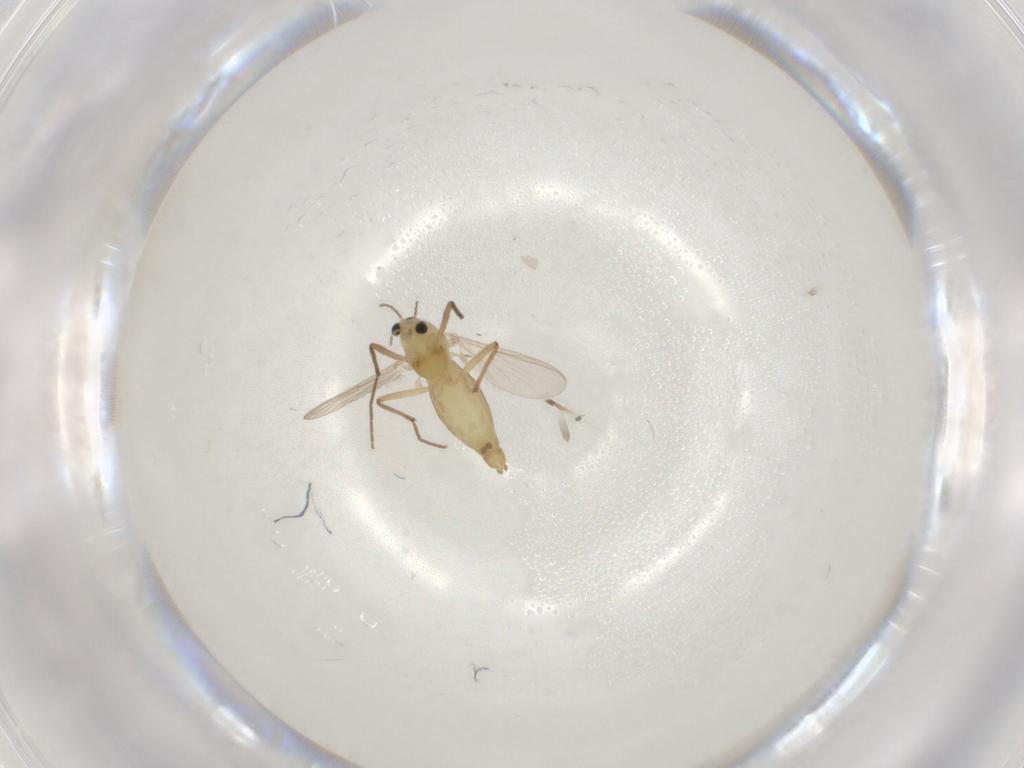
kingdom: Animalia
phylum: Arthropoda
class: Insecta
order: Diptera
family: Chironomidae
